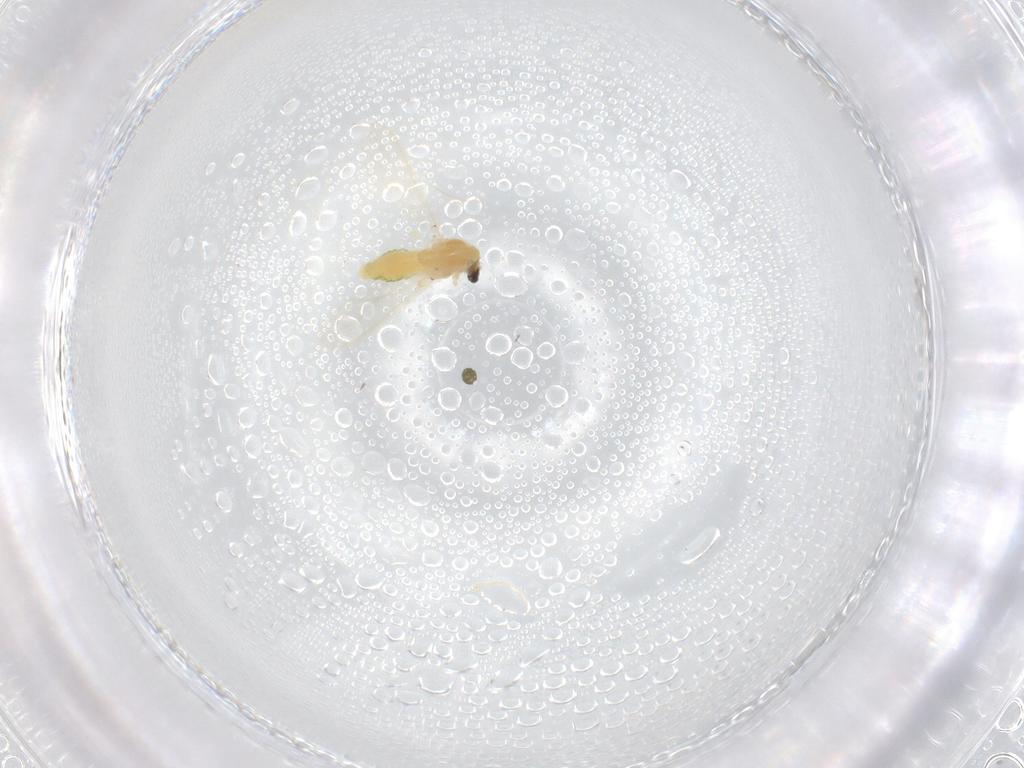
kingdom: Animalia
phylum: Arthropoda
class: Insecta
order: Diptera
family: Chironomidae
